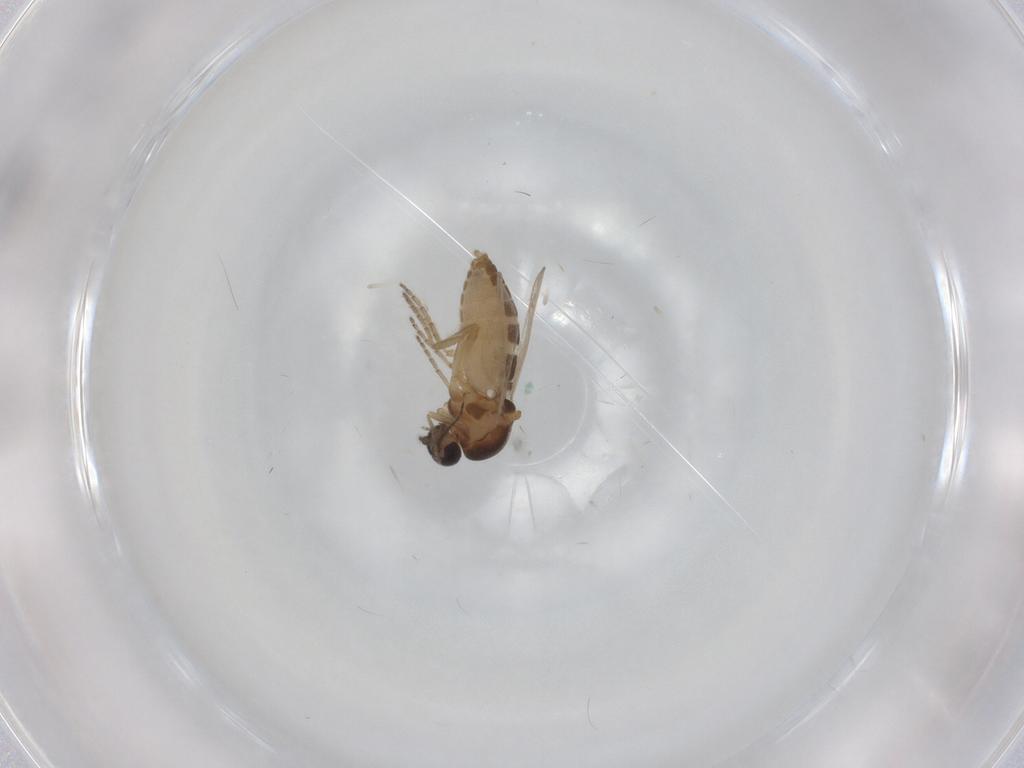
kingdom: Animalia
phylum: Arthropoda
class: Insecta
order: Diptera
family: Ceratopogonidae
